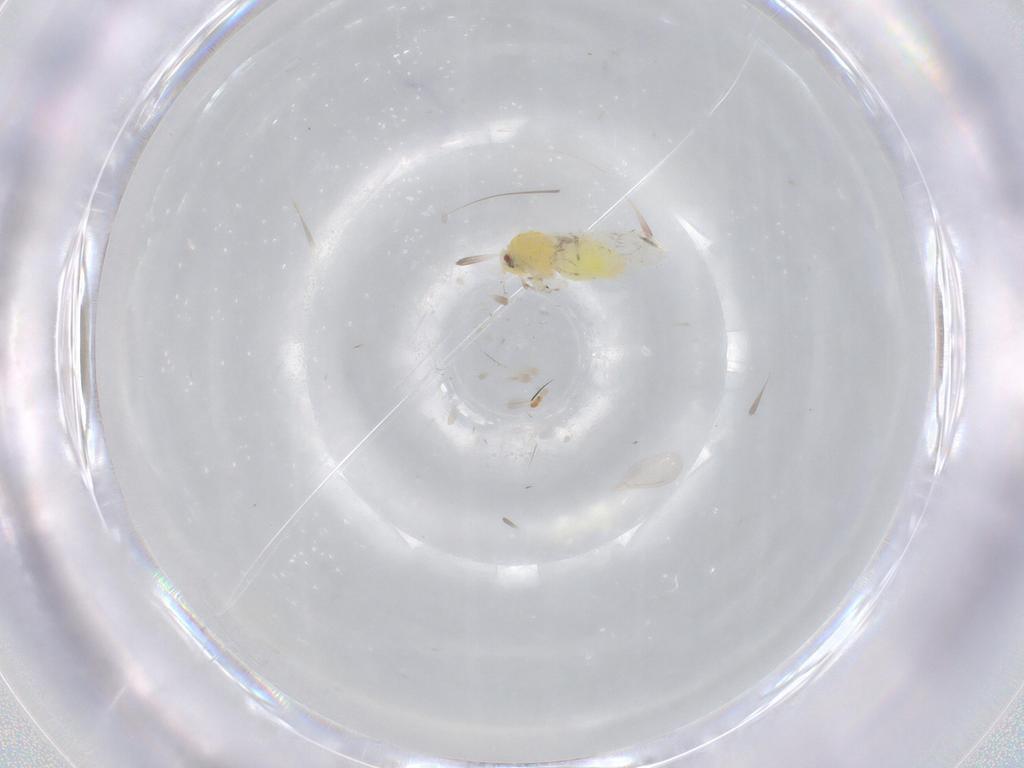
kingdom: Animalia
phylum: Arthropoda
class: Insecta
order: Hemiptera
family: Aleyrodidae
